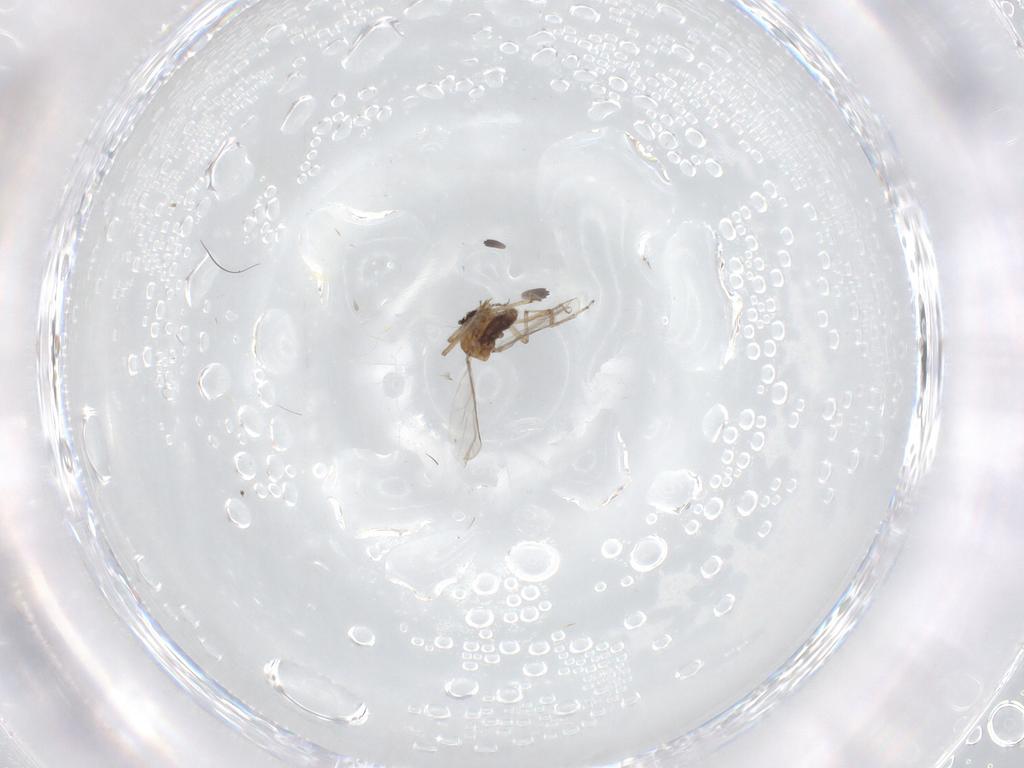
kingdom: Animalia
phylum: Arthropoda
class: Insecta
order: Diptera
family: Ceratopogonidae
